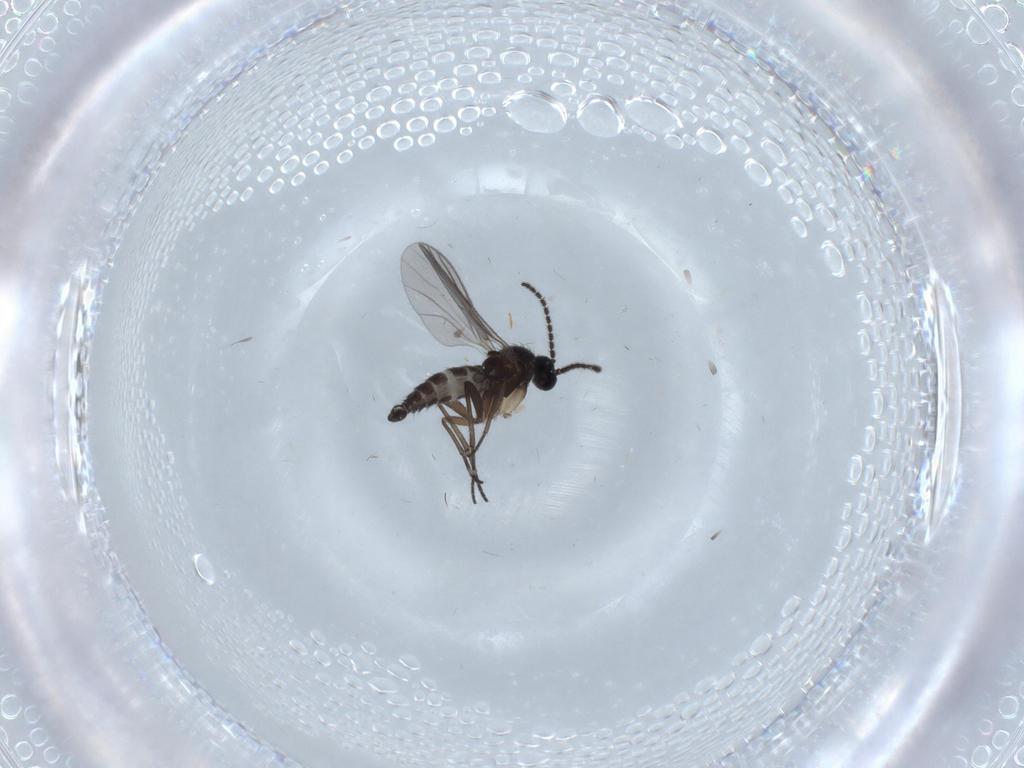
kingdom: Animalia
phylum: Arthropoda
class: Insecta
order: Diptera
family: Sciaridae
